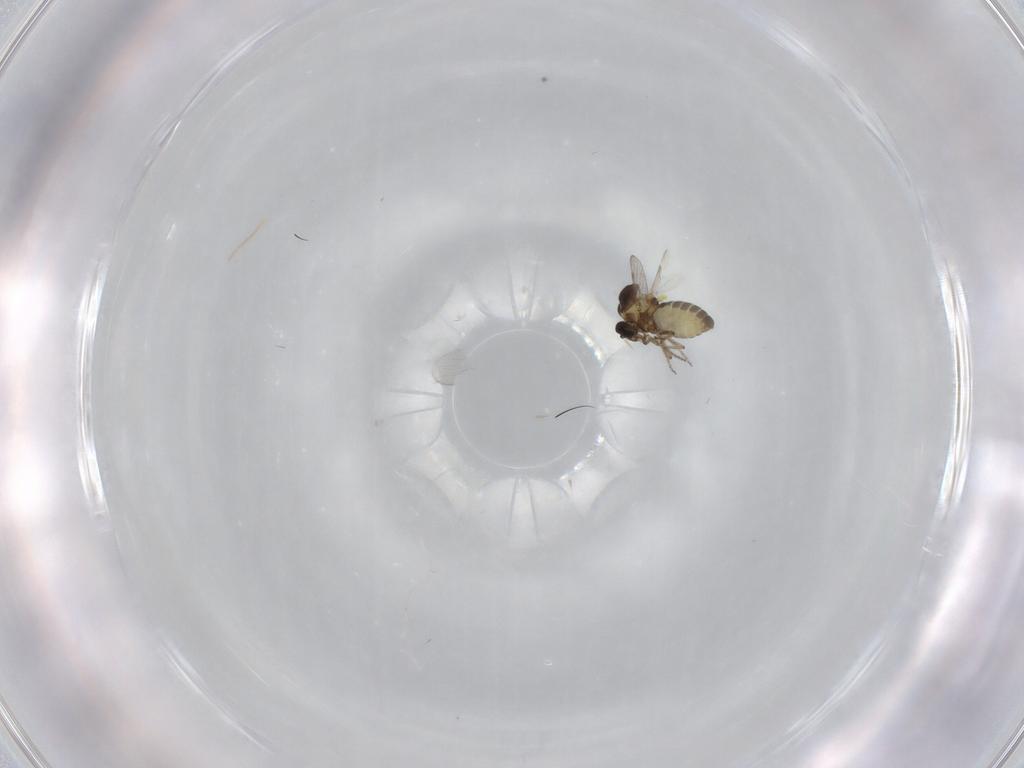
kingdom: Animalia
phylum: Arthropoda
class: Insecta
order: Diptera
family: Ceratopogonidae
